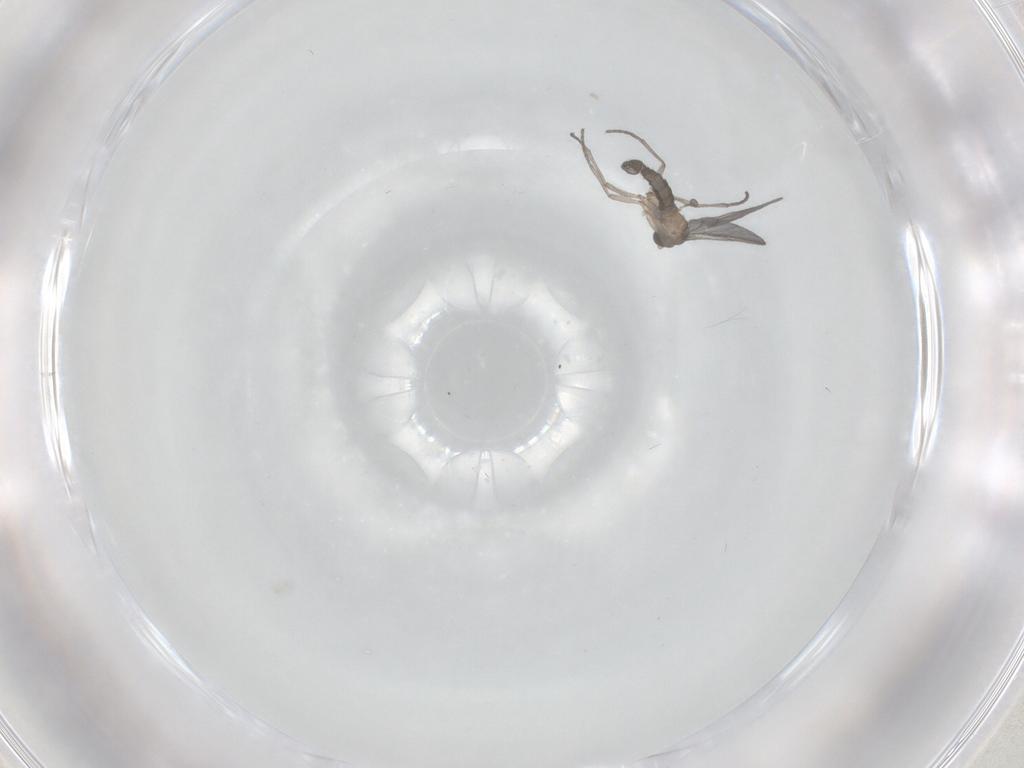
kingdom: Animalia
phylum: Arthropoda
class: Insecta
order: Diptera
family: Sciaridae
